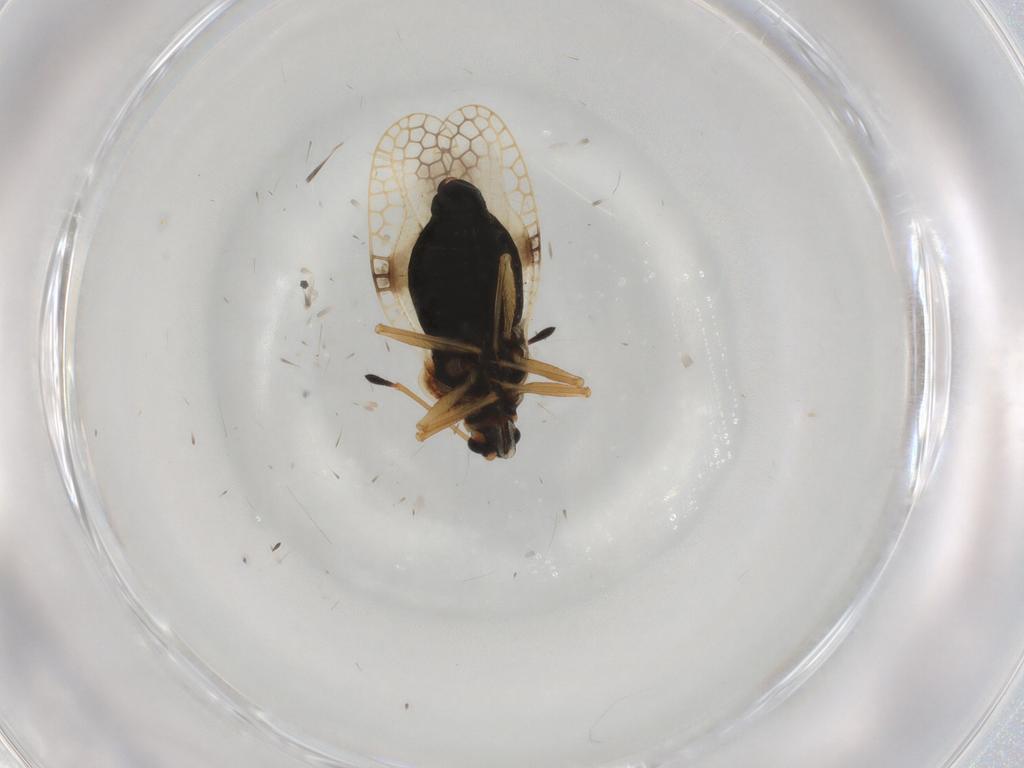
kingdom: Animalia
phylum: Arthropoda
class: Insecta
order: Hemiptera
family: Tingidae
